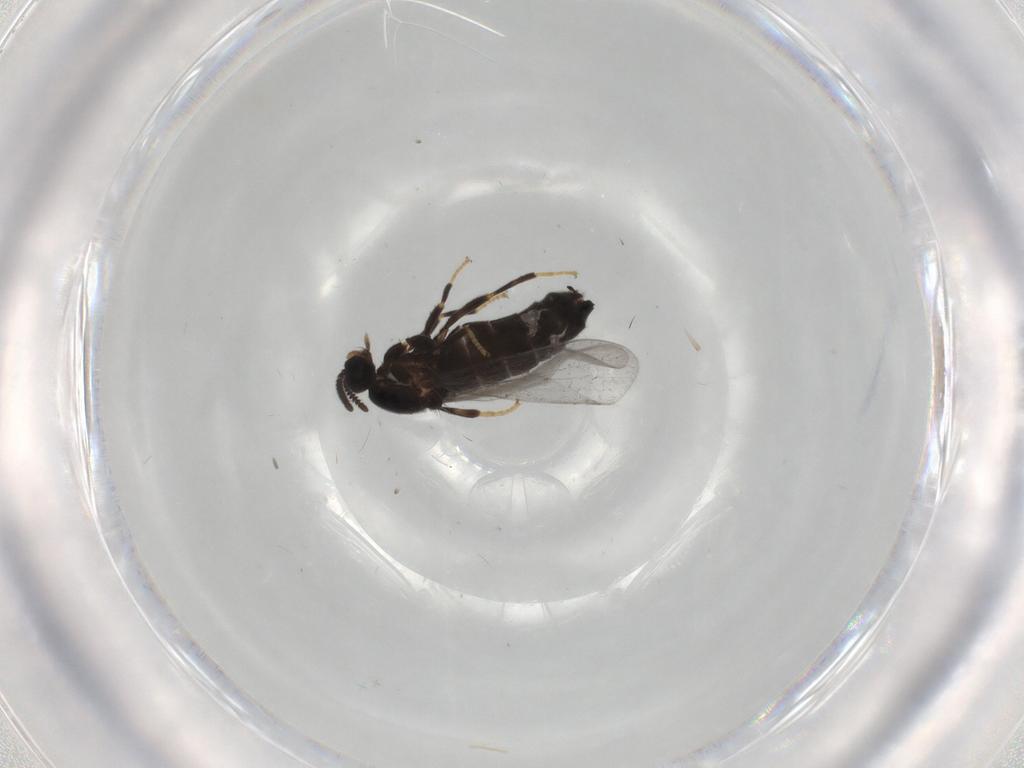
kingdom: Animalia
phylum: Arthropoda
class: Insecta
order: Diptera
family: Scatopsidae
